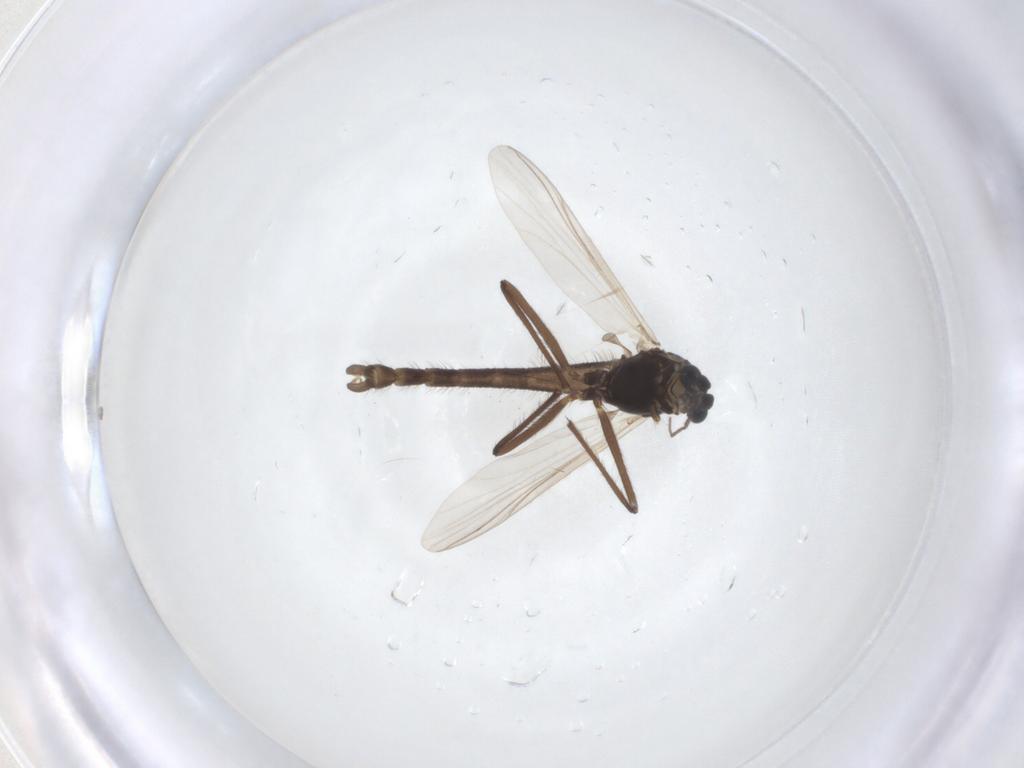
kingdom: Animalia
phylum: Arthropoda
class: Insecta
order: Diptera
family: Chironomidae
